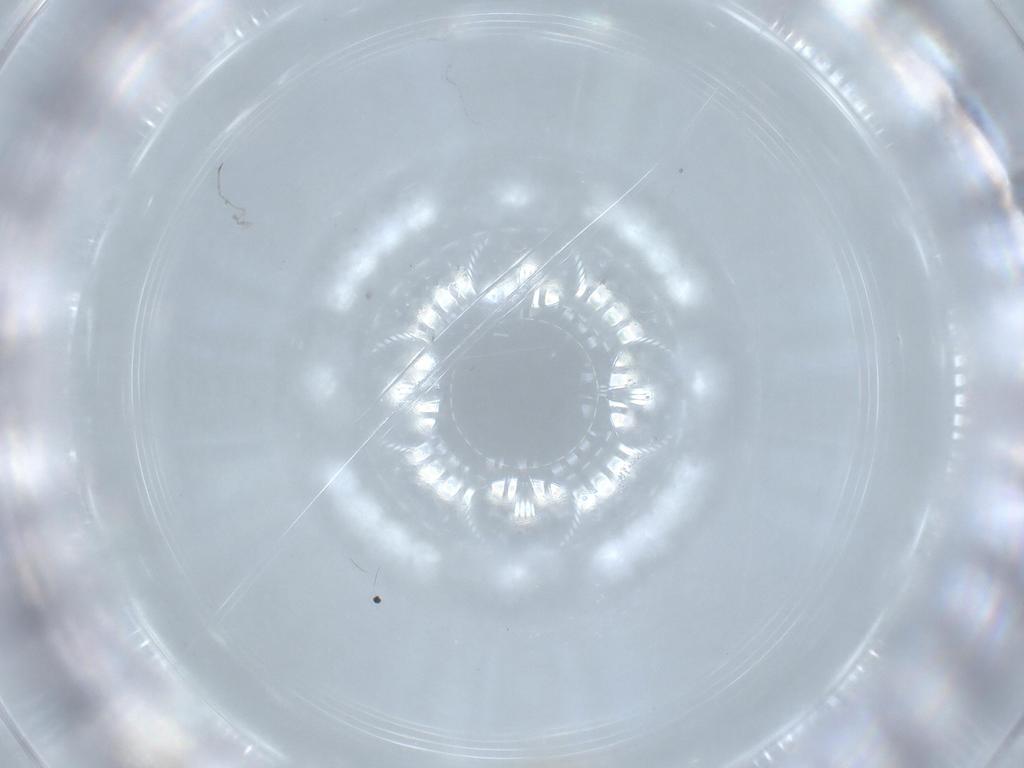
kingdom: Animalia
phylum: Arthropoda
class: Insecta
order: Hemiptera
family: Aleyrodidae
